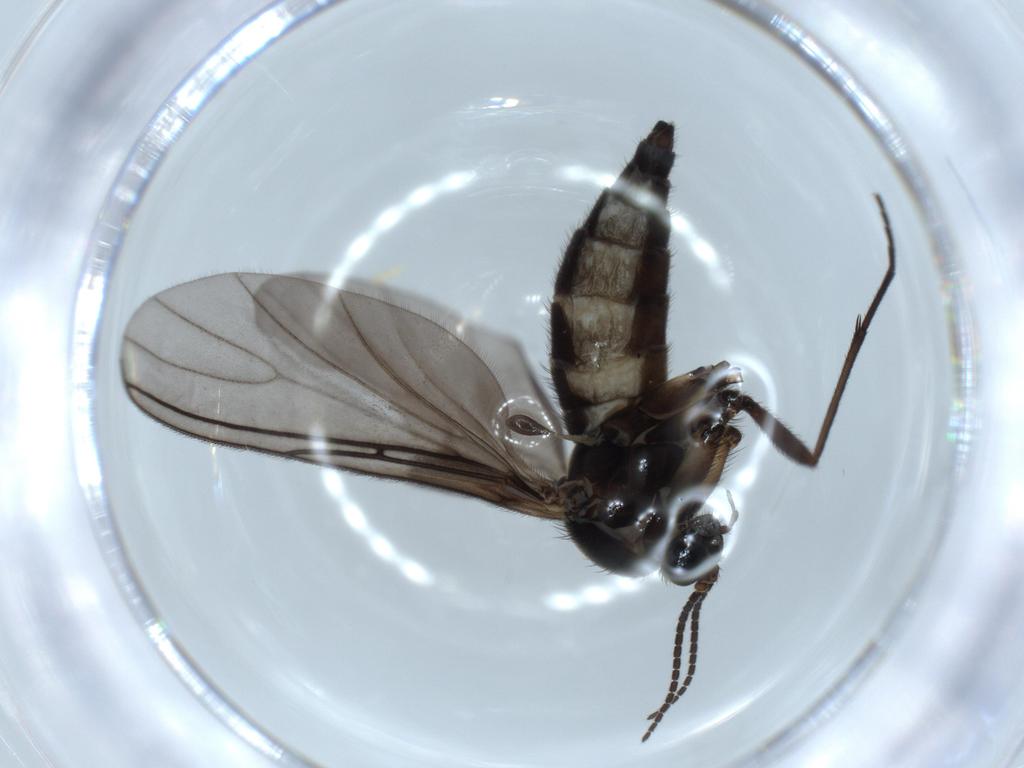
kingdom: Animalia
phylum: Arthropoda
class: Insecta
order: Diptera
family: Sciaridae
